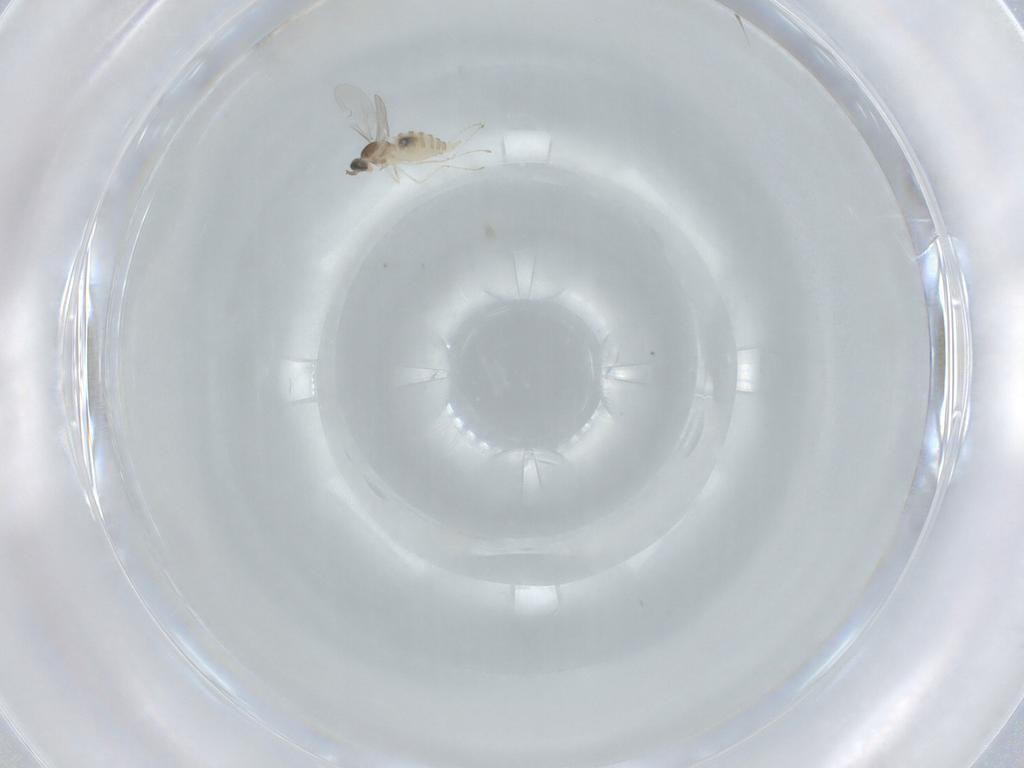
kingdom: Animalia
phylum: Arthropoda
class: Insecta
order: Diptera
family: Cecidomyiidae
